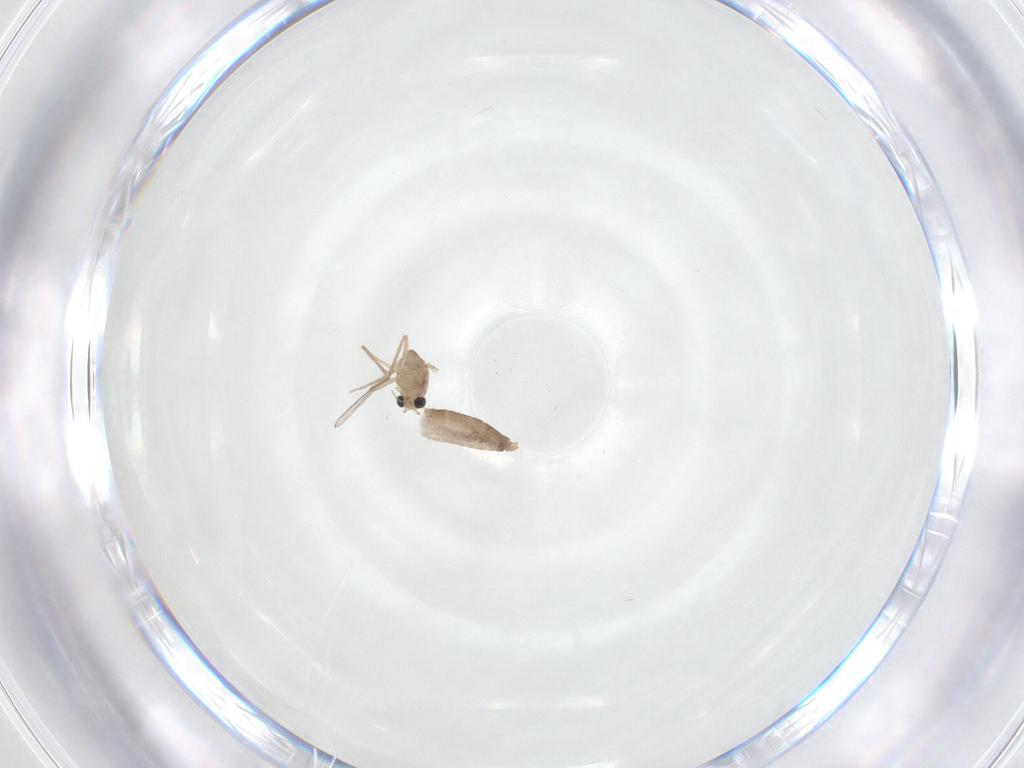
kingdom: Animalia
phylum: Arthropoda
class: Insecta
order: Diptera
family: Chironomidae
